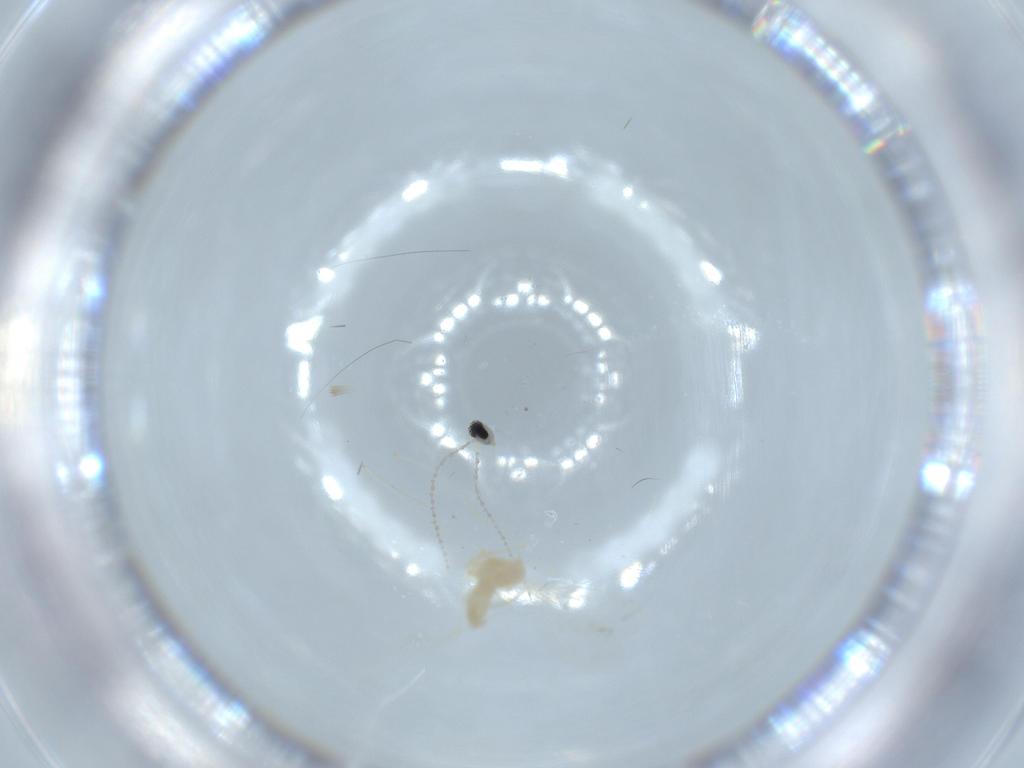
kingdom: Animalia
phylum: Arthropoda
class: Insecta
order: Diptera
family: Cecidomyiidae
